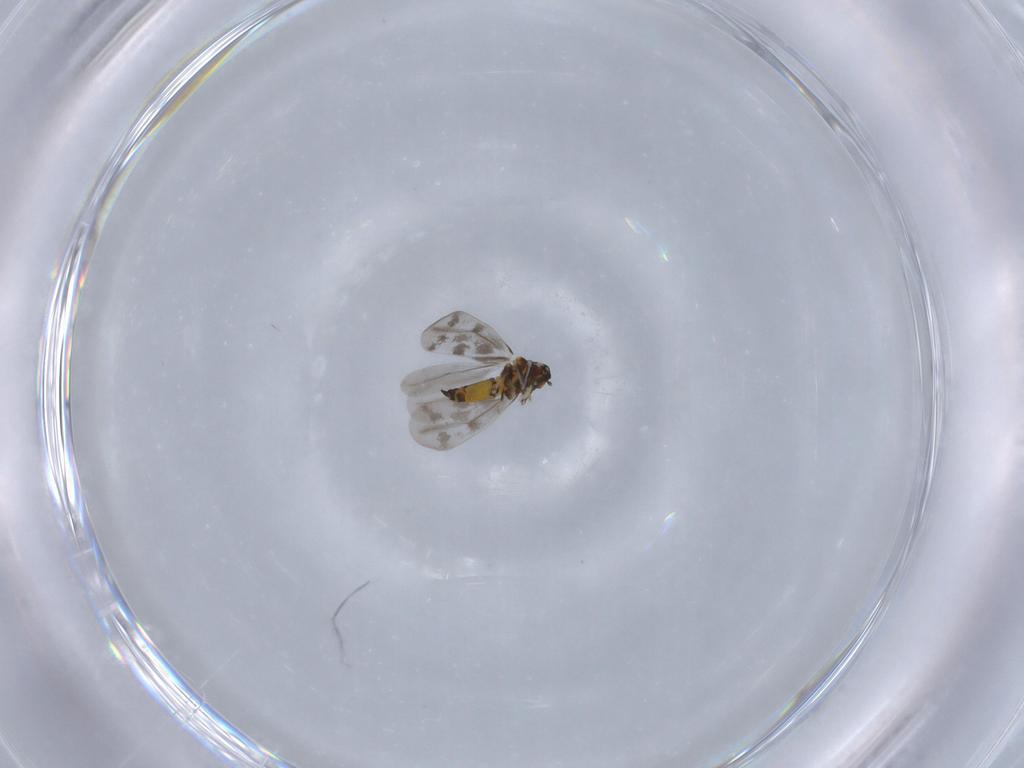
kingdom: Animalia
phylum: Arthropoda
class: Insecta
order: Hemiptera
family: Aleyrodidae
